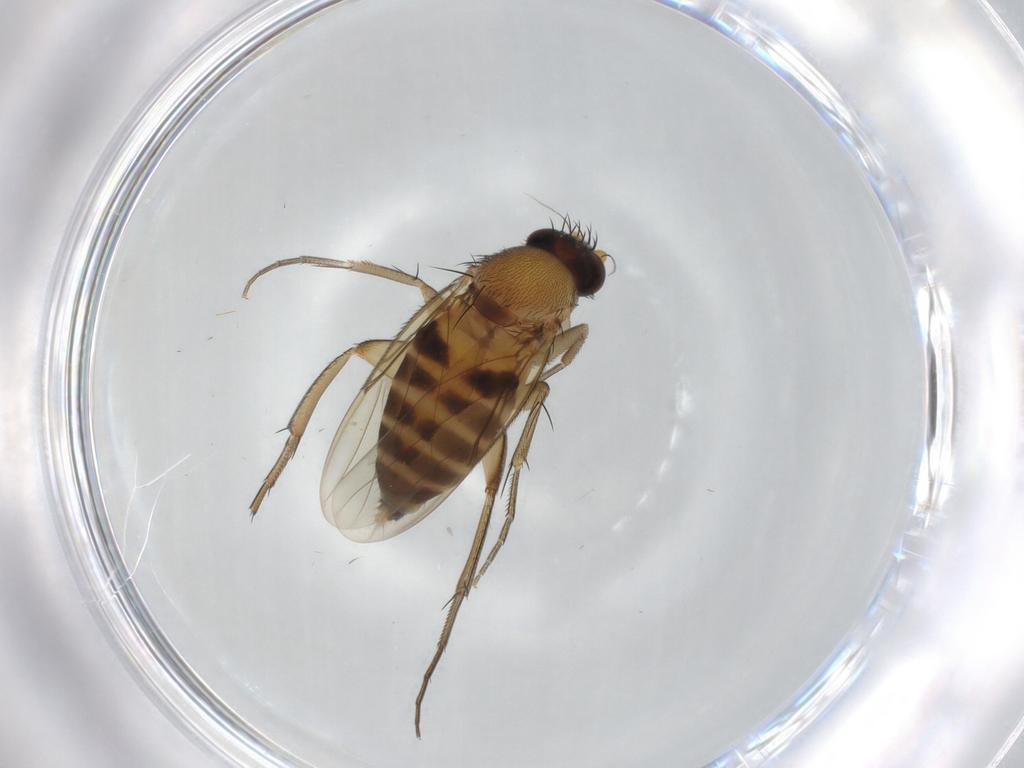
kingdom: Animalia
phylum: Arthropoda
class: Insecta
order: Diptera
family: Phoridae
